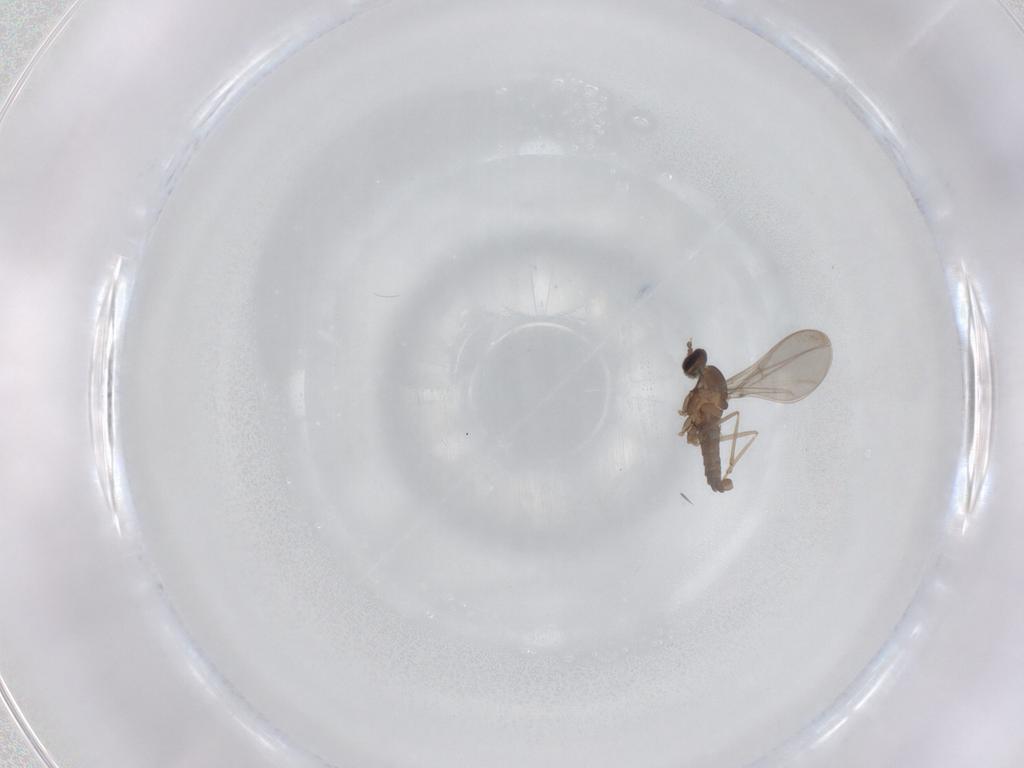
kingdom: Animalia
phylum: Arthropoda
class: Insecta
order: Diptera
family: Cecidomyiidae
